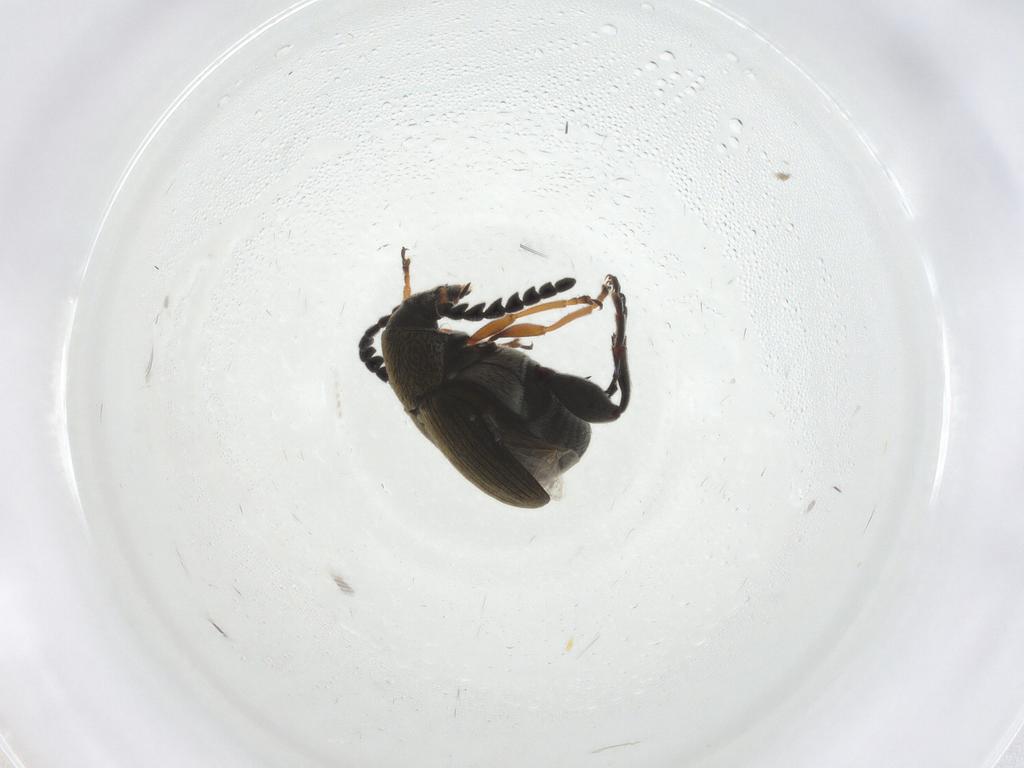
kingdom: Animalia
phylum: Arthropoda
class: Insecta
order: Coleoptera
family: Chrysomelidae
